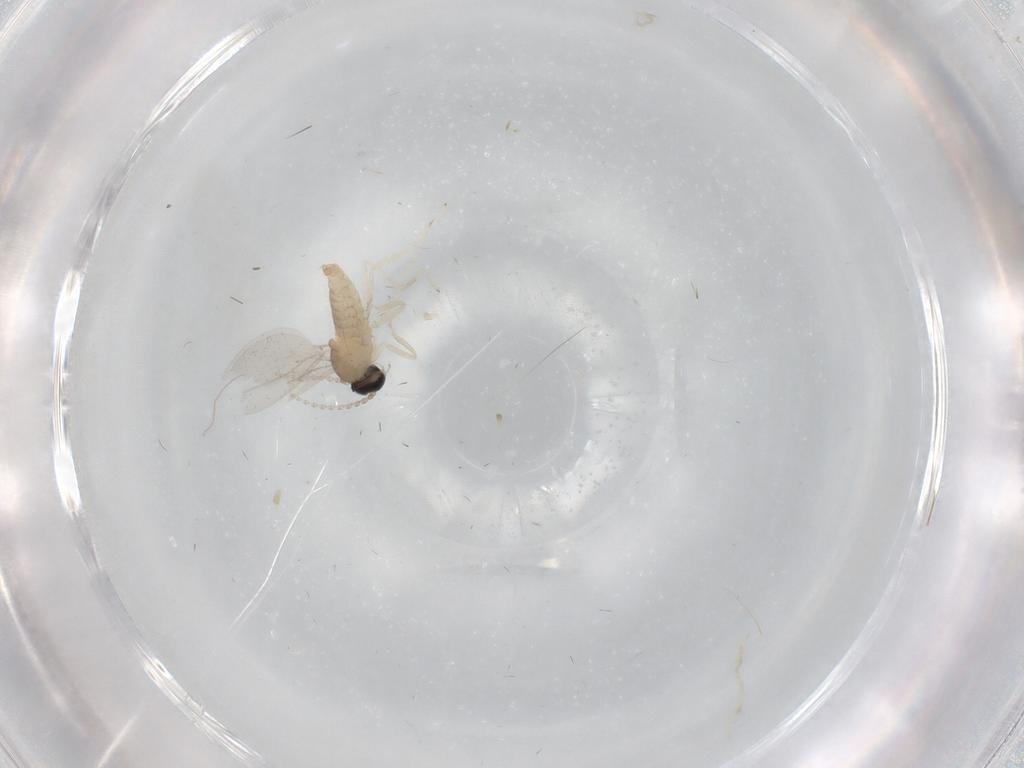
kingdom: Animalia
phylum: Arthropoda
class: Insecta
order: Diptera
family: Cecidomyiidae
